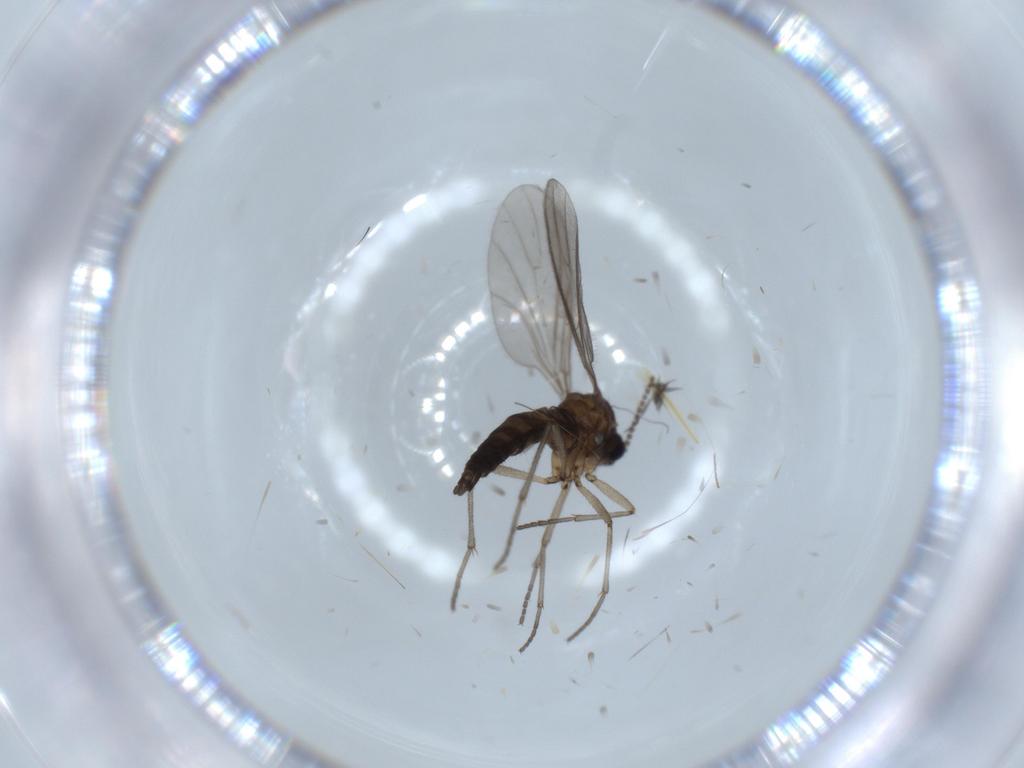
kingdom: Animalia
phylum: Arthropoda
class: Insecta
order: Diptera
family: Sciaridae
